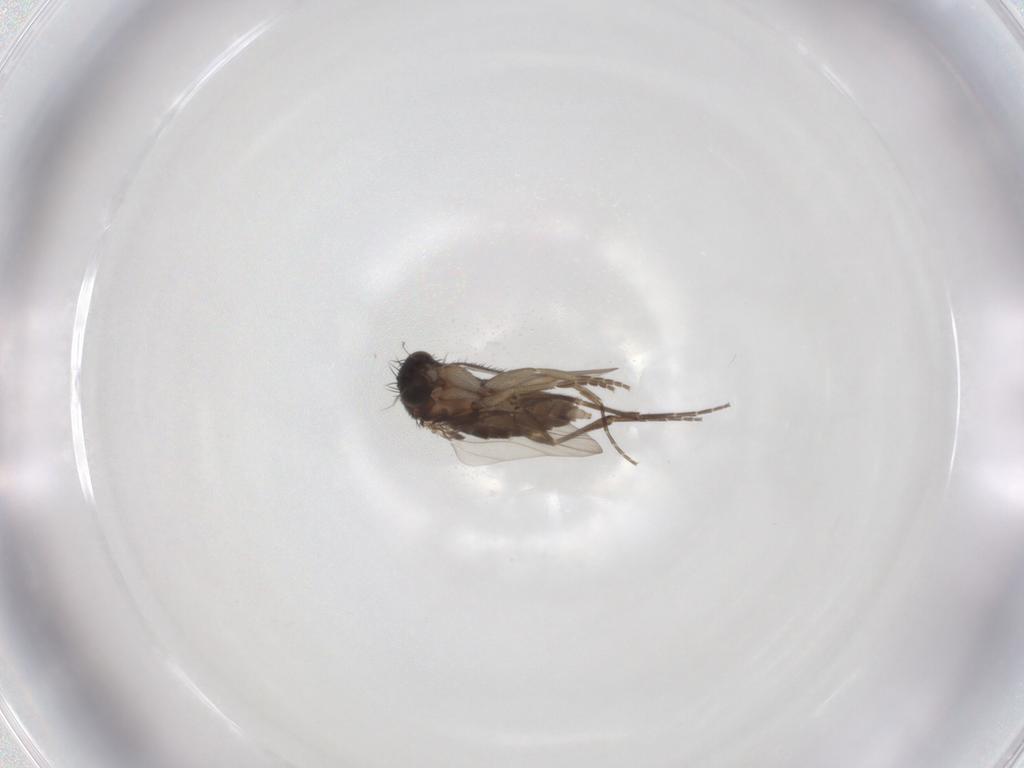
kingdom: Animalia
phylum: Arthropoda
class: Insecta
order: Diptera
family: Phoridae
